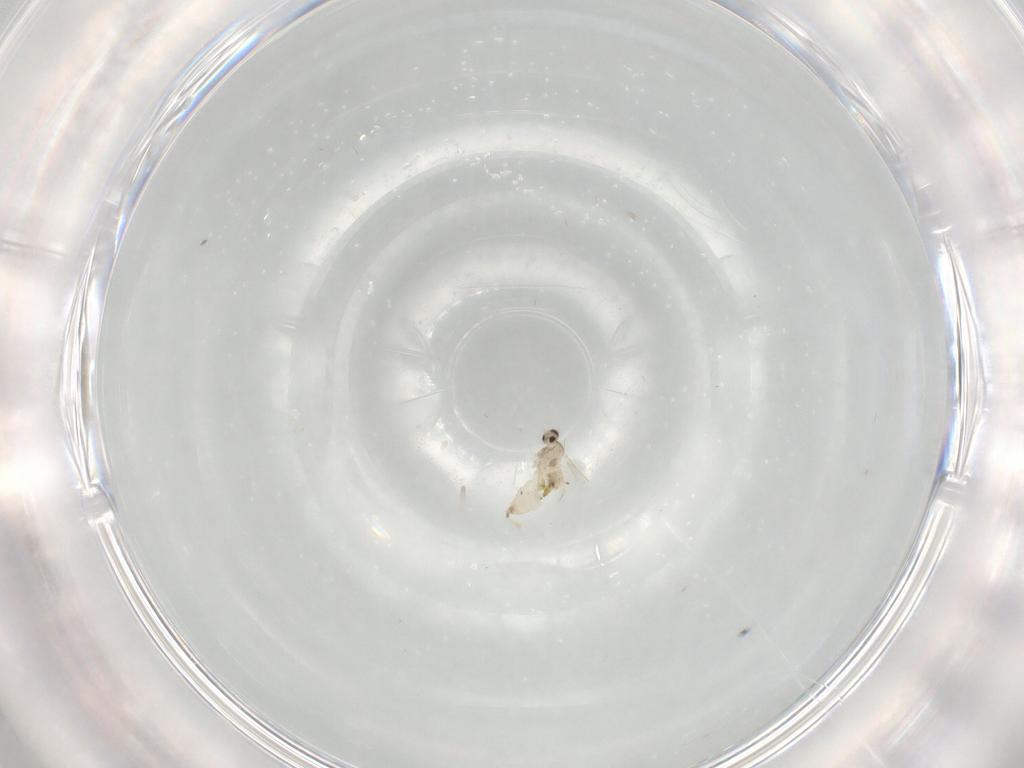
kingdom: Animalia
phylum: Arthropoda
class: Insecta
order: Diptera
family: Cecidomyiidae
